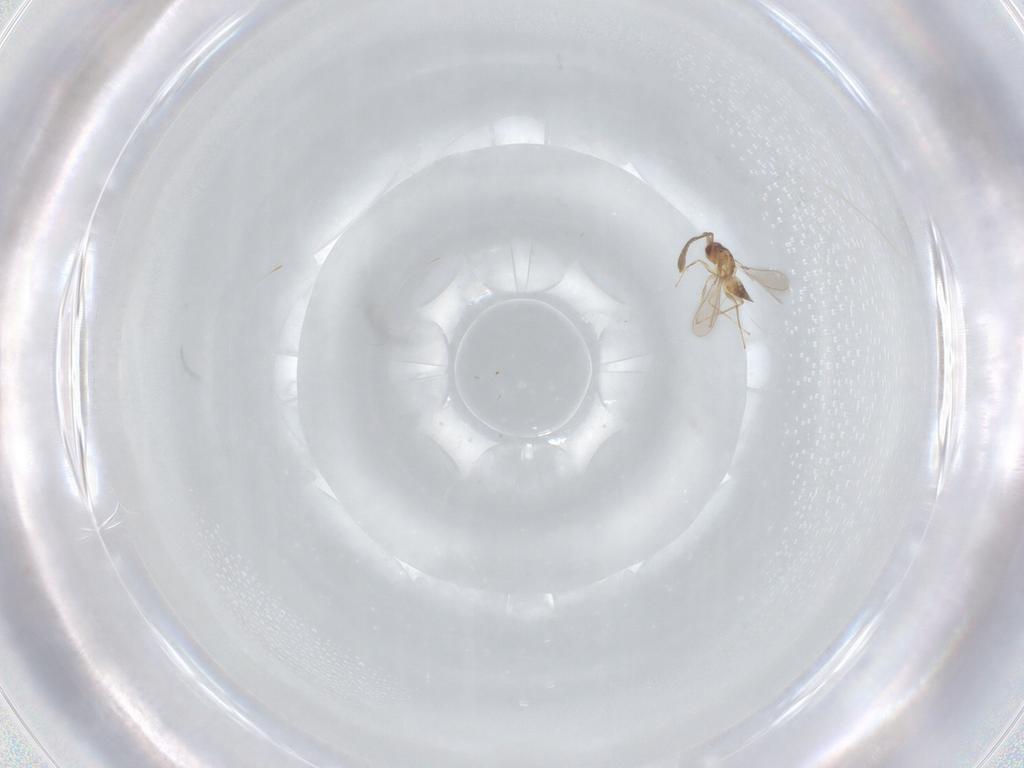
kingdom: Animalia
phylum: Arthropoda
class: Insecta
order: Hymenoptera
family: Mymaridae
